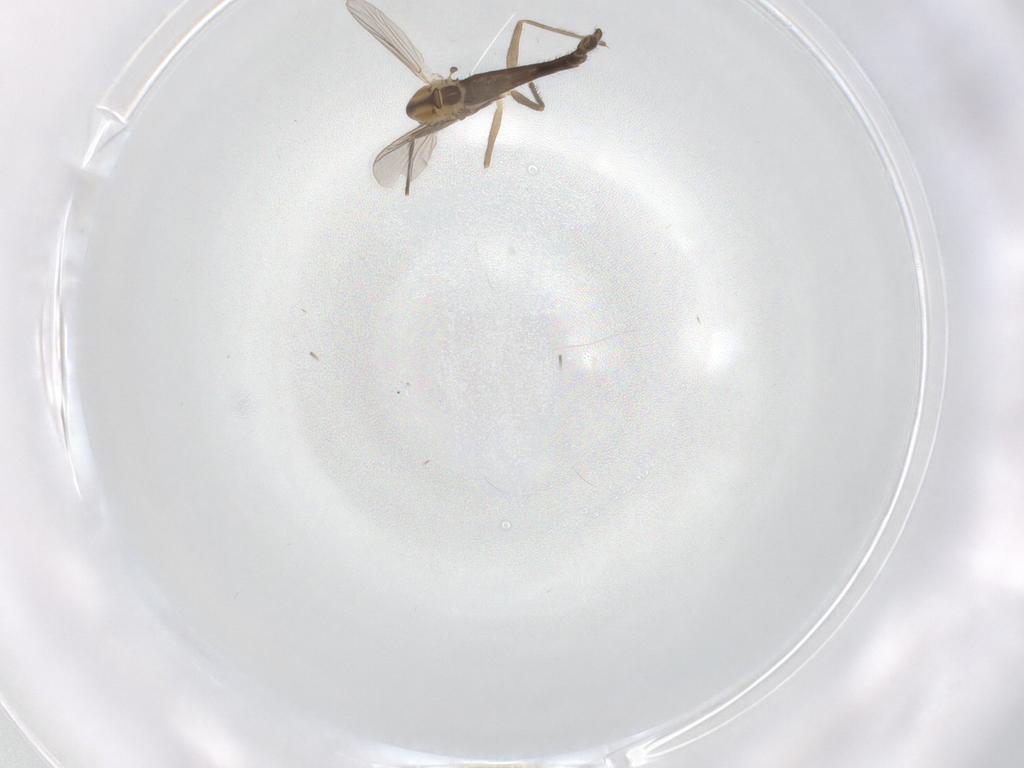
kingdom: Animalia
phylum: Arthropoda
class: Insecta
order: Diptera
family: Chironomidae
